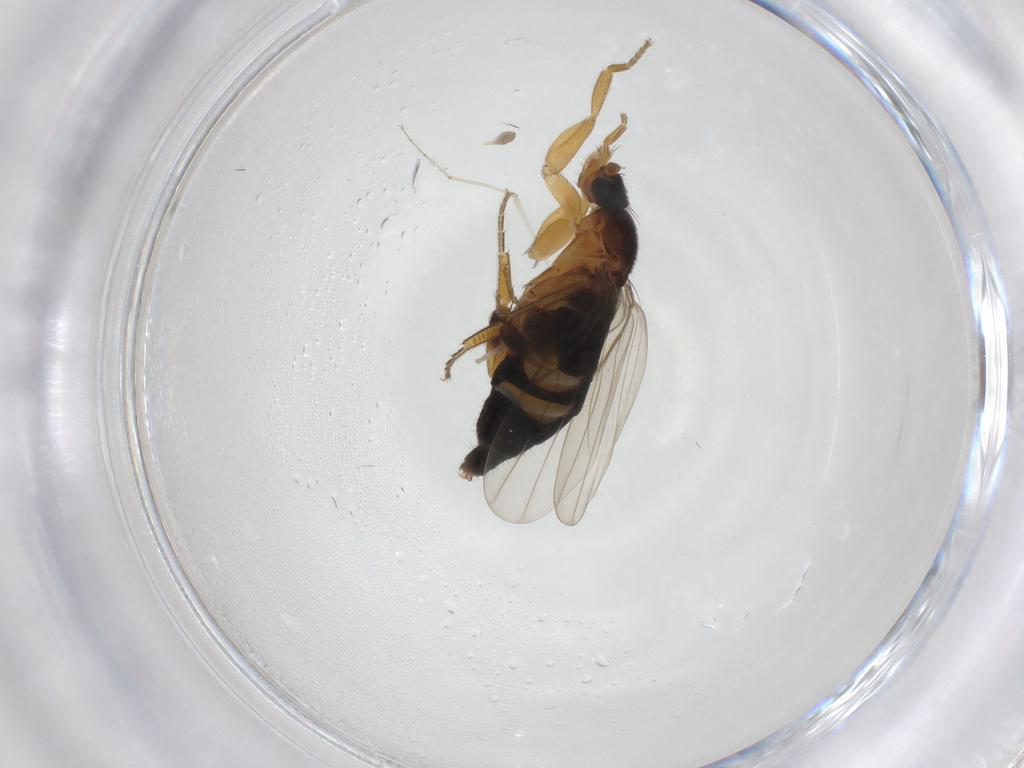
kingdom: Animalia
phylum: Arthropoda
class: Insecta
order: Diptera
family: Phoridae
